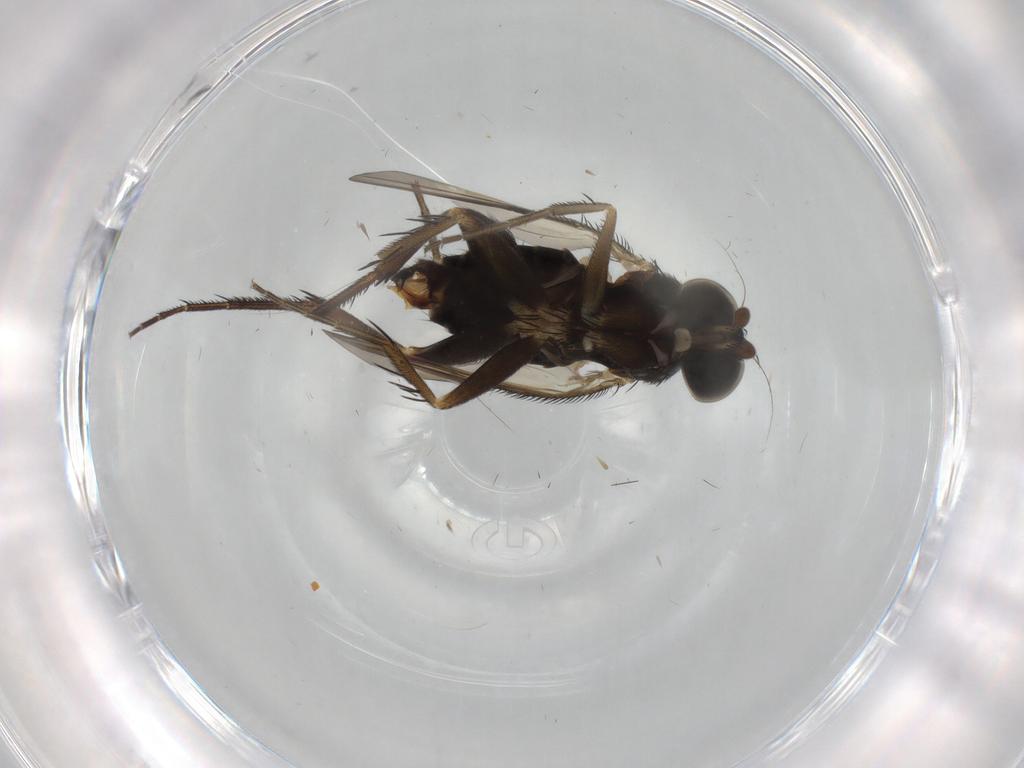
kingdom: Animalia
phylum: Arthropoda
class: Insecta
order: Diptera
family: Phoridae
